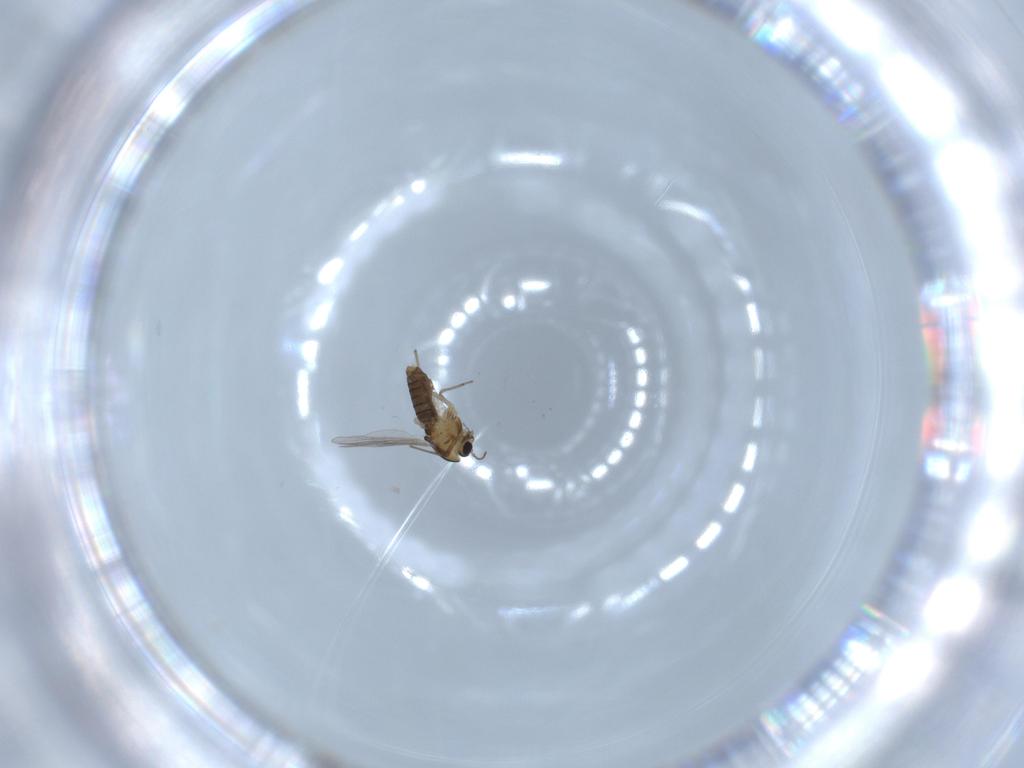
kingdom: Animalia
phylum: Arthropoda
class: Insecta
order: Diptera
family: Chironomidae
